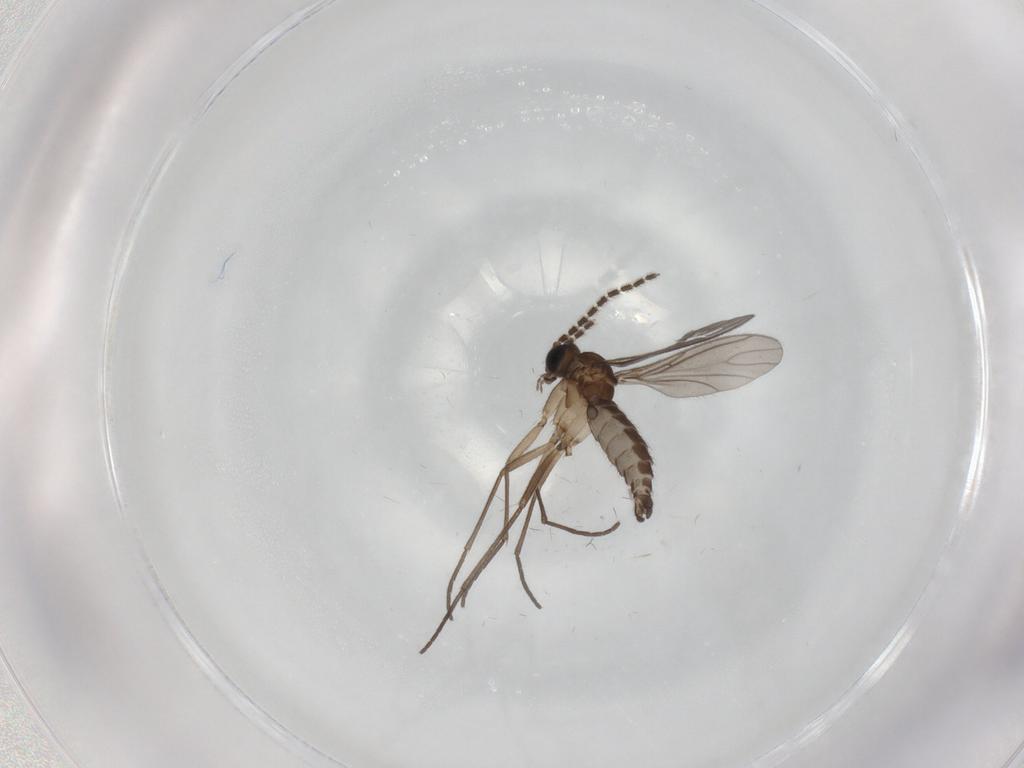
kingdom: Animalia
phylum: Arthropoda
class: Insecta
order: Diptera
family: Sciaridae
